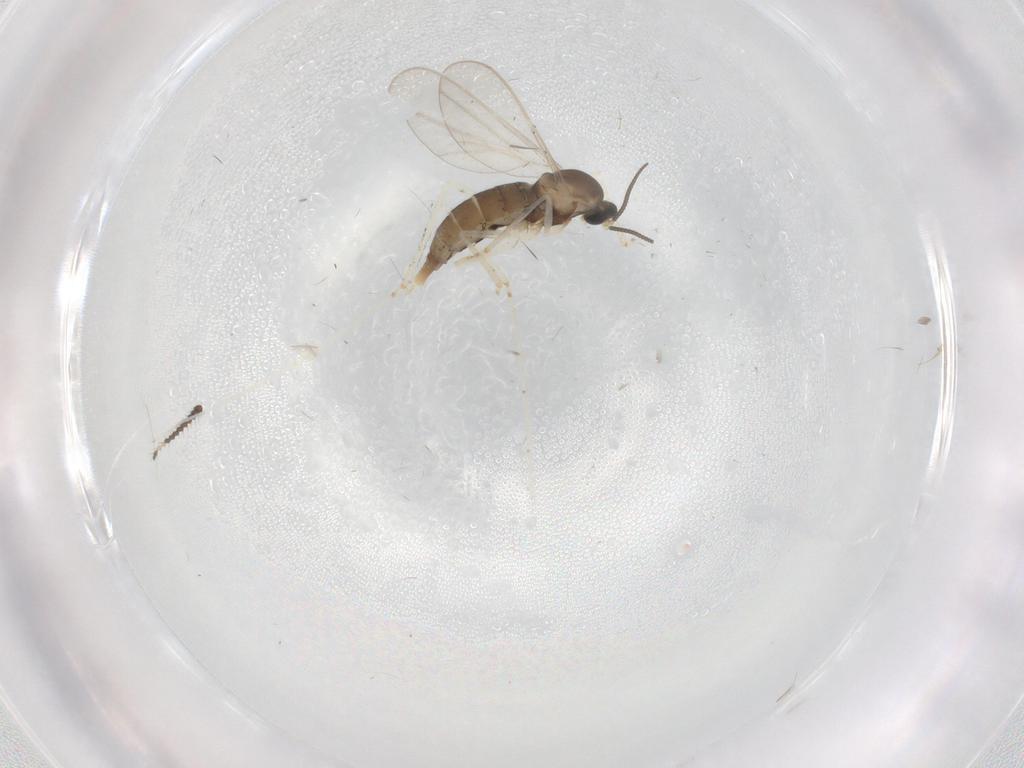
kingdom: Animalia
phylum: Arthropoda
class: Insecta
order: Diptera
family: Limoniidae
